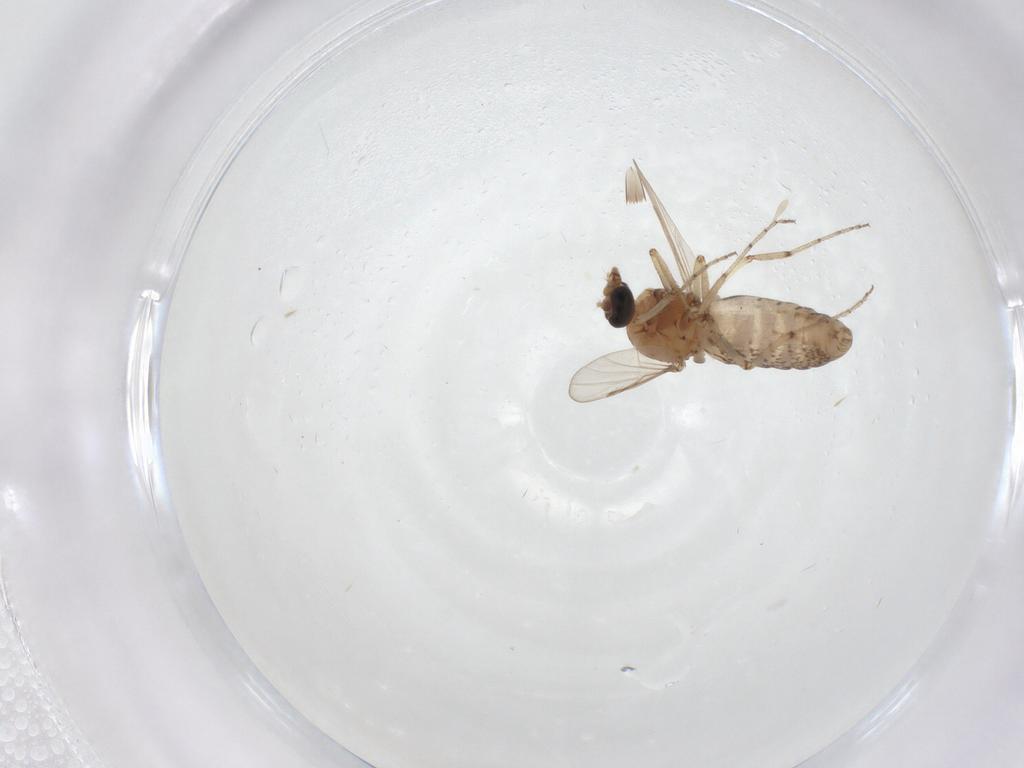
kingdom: Animalia
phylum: Arthropoda
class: Insecta
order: Diptera
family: Ceratopogonidae
